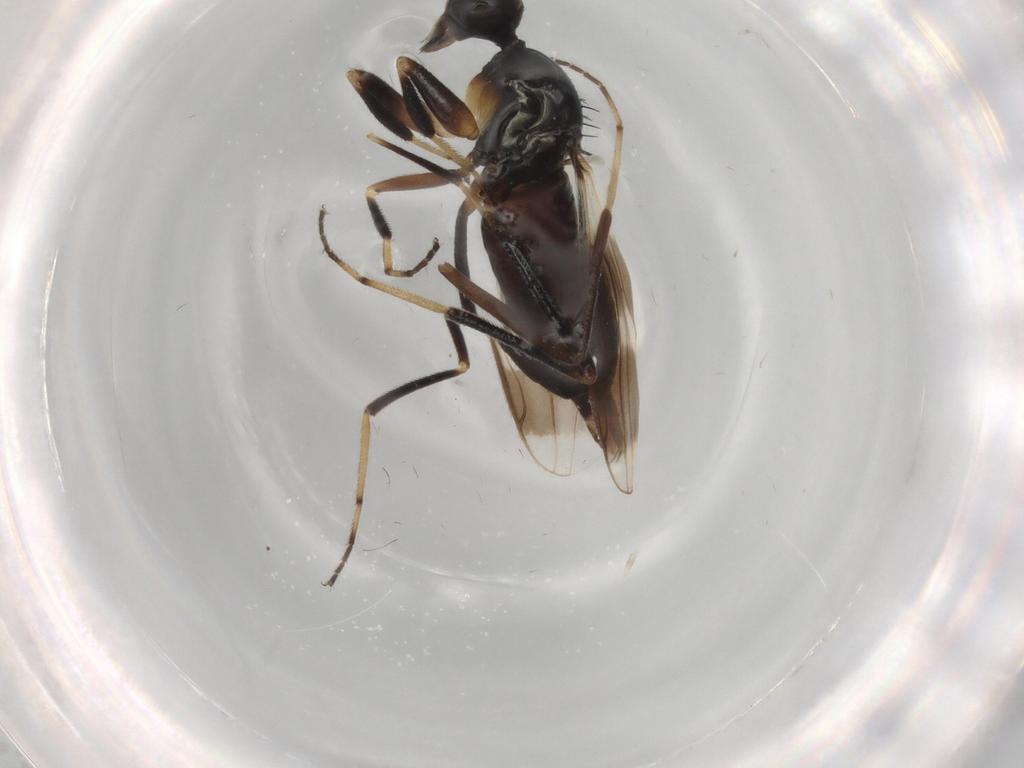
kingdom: Animalia
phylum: Arthropoda
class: Insecta
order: Diptera
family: Hybotidae
